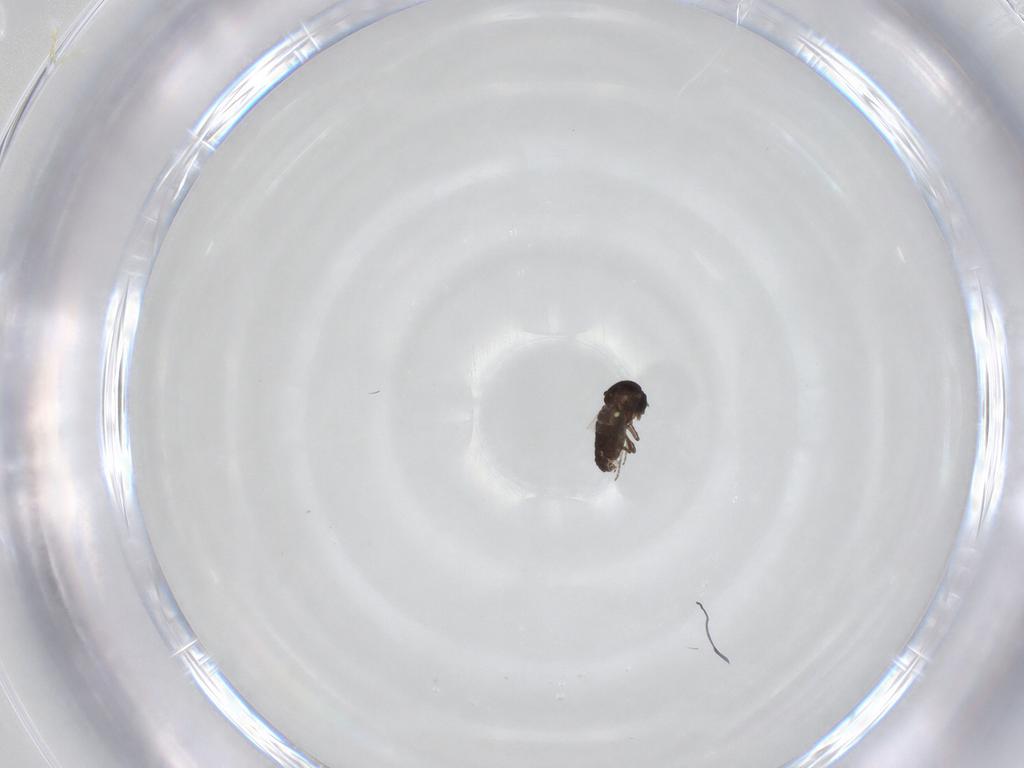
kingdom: Animalia
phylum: Arthropoda
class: Insecta
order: Diptera
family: Ceratopogonidae
